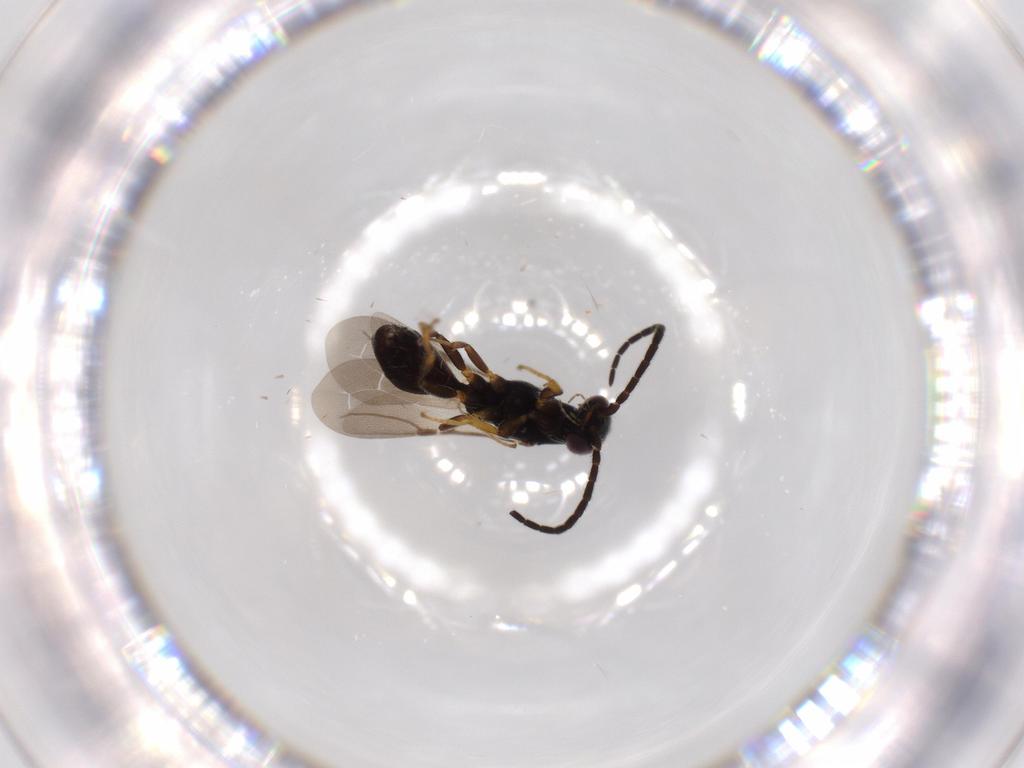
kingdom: Animalia
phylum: Arthropoda
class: Insecta
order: Hymenoptera
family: Bethylidae
